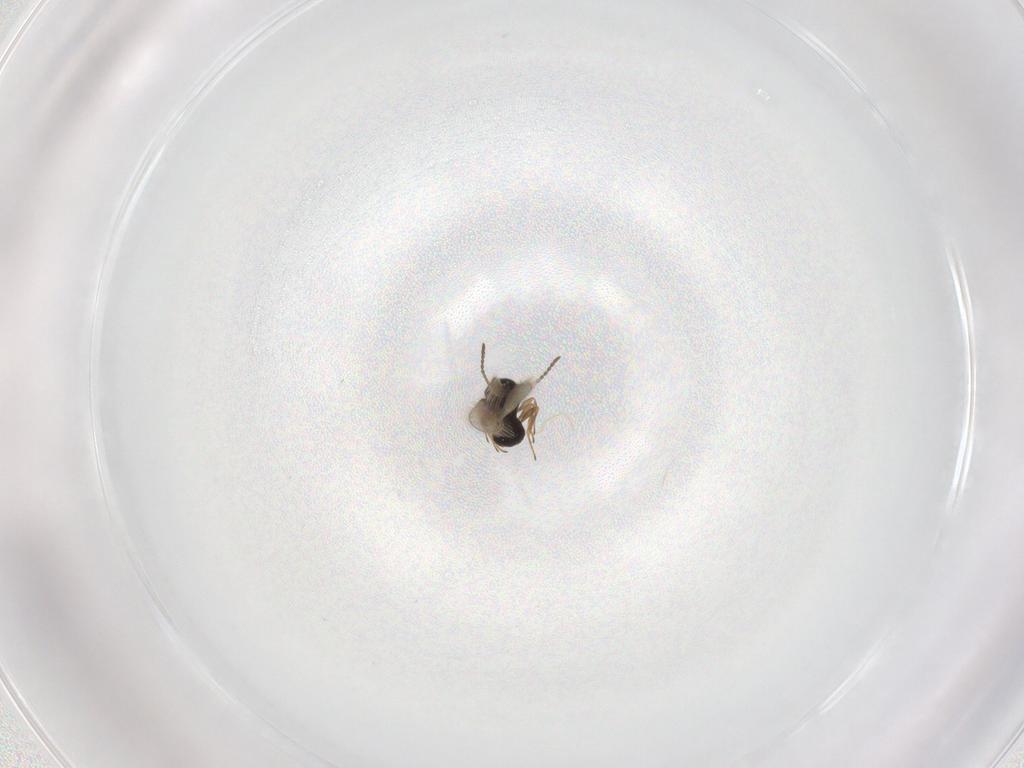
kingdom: Animalia
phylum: Arthropoda
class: Insecta
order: Hymenoptera
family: Scelionidae
